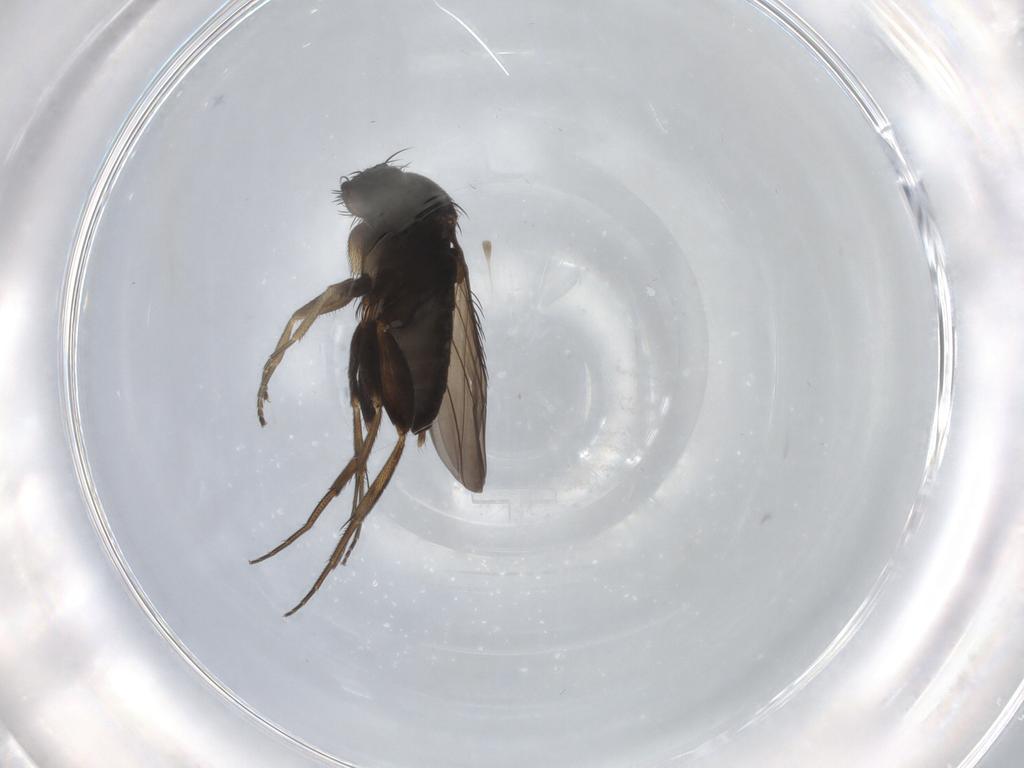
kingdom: Animalia
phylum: Arthropoda
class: Insecta
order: Diptera
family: Phoridae
